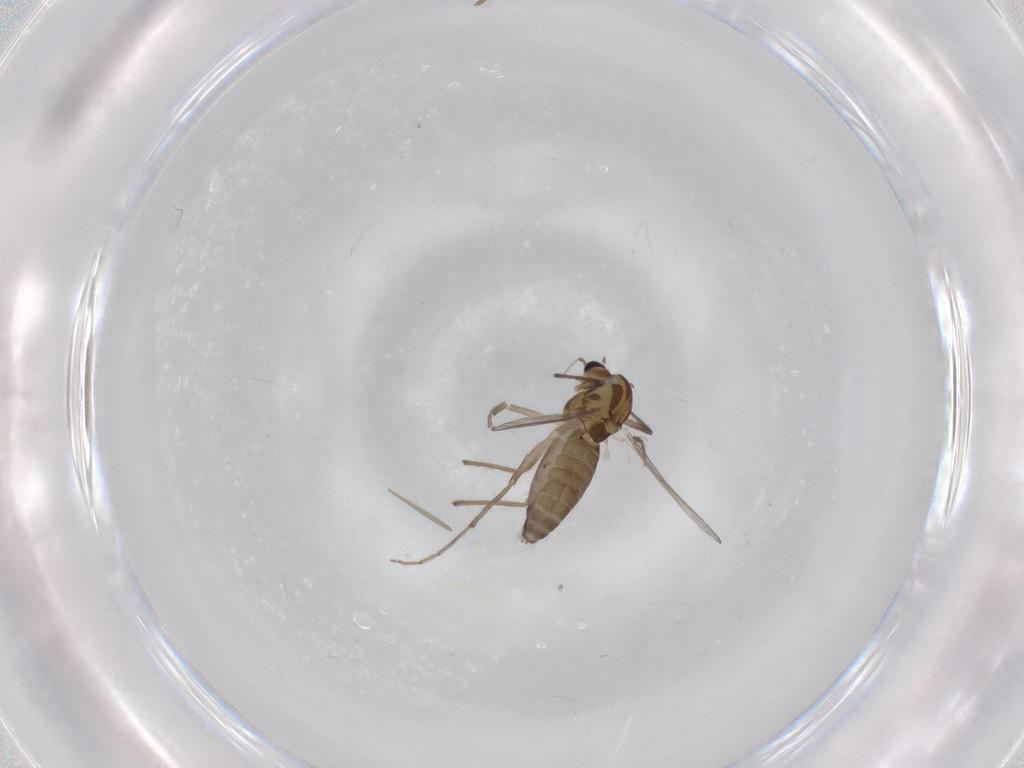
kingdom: Animalia
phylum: Arthropoda
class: Insecta
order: Diptera
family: Chironomidae
